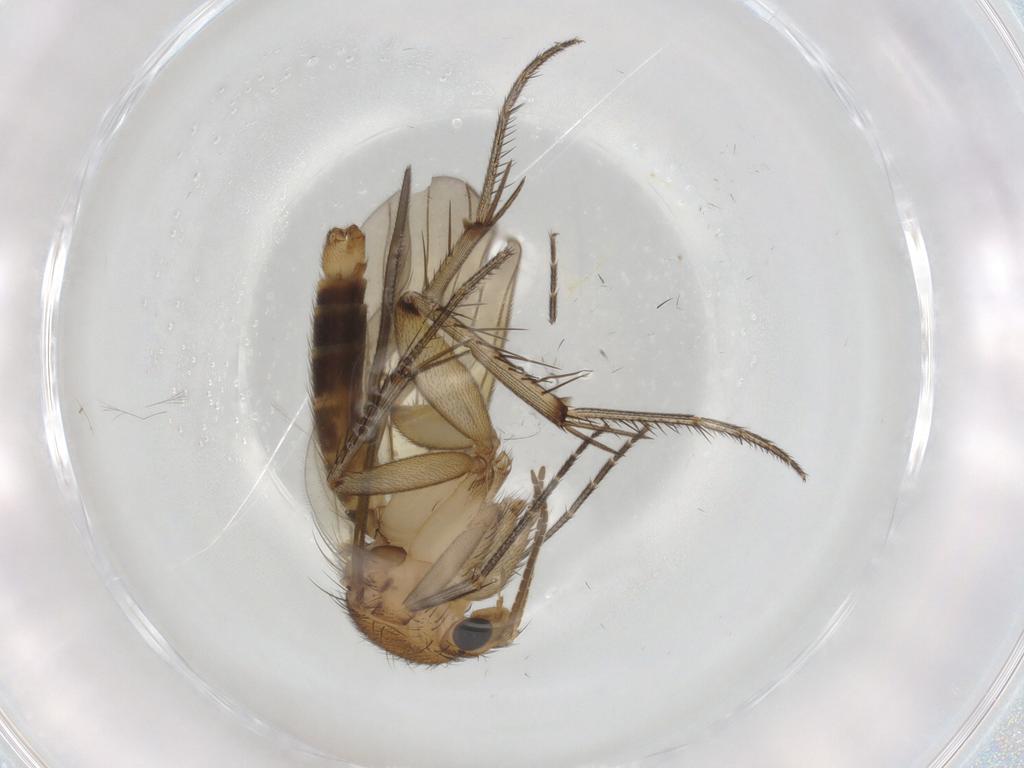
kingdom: Animalia
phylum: Arthropoda
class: Insecta
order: Diptera
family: Mycetophilidae
